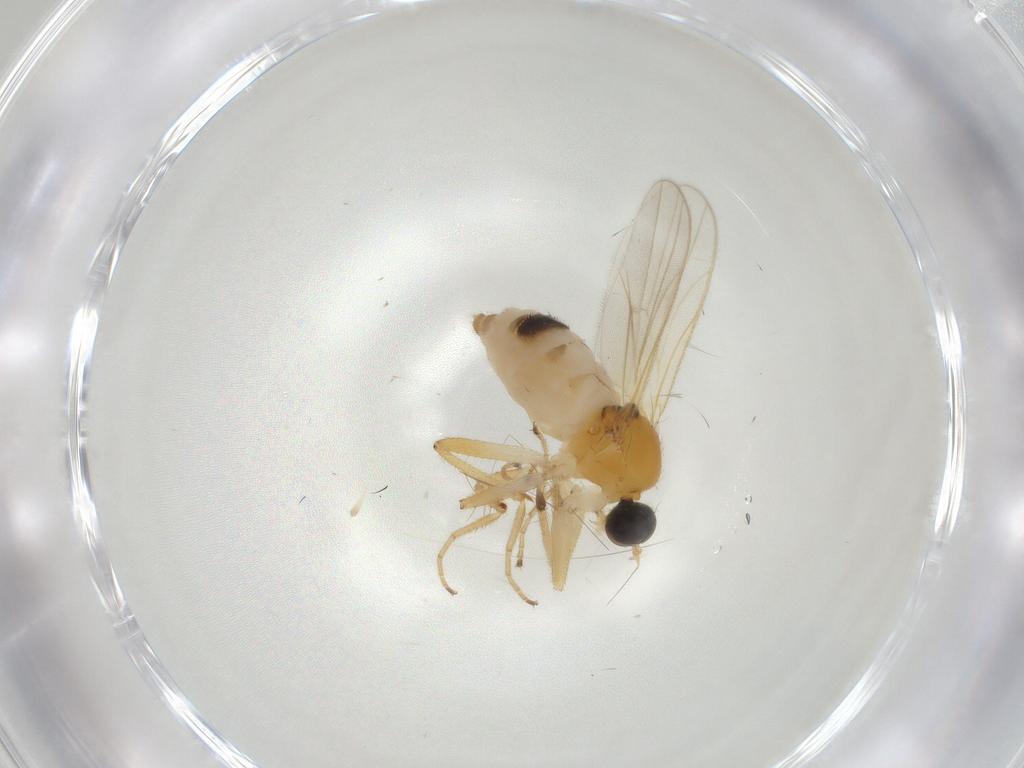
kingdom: Animalia
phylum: Arthropoda
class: Insecta
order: Diptera
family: Hybotidae
